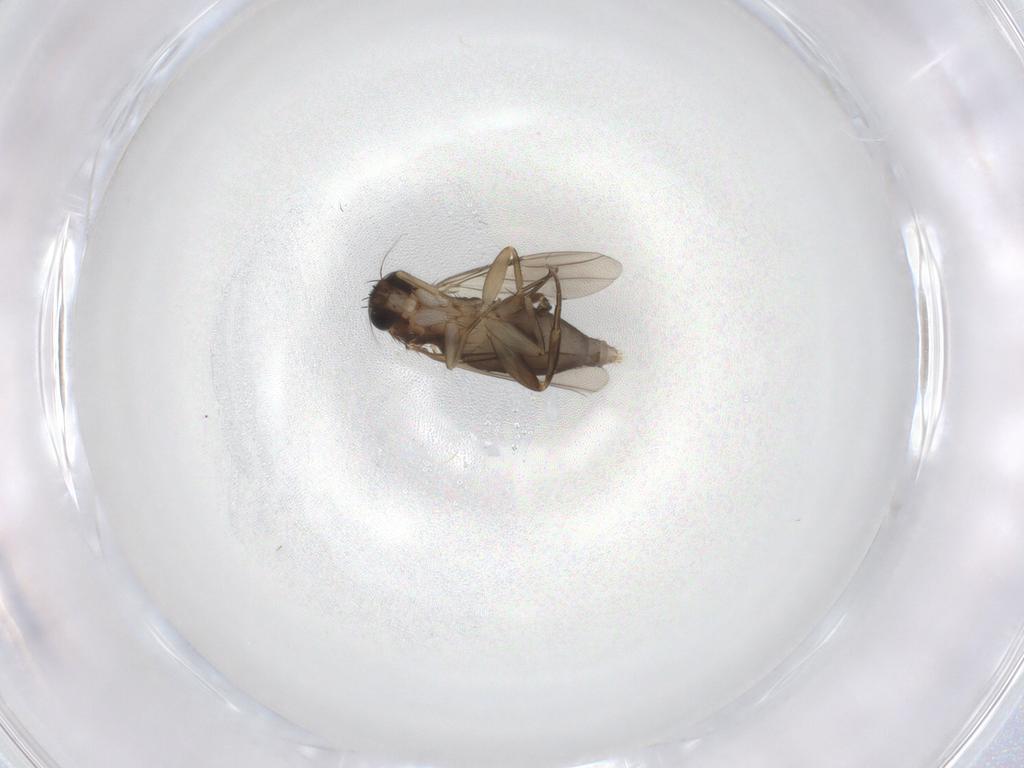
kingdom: Animalia
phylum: Arthropoda
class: Insecta
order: Diptera
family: Phoridae
